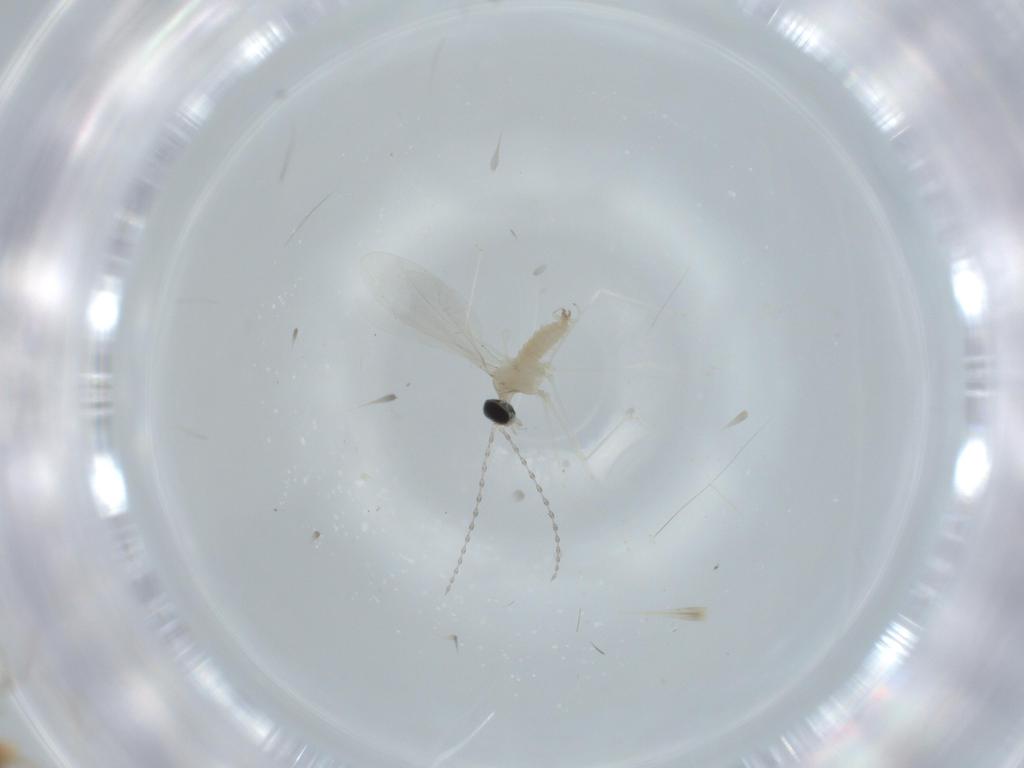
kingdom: Animalia
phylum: Arthropoda
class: Insecta
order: Diptera
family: Cecidomyiidae
